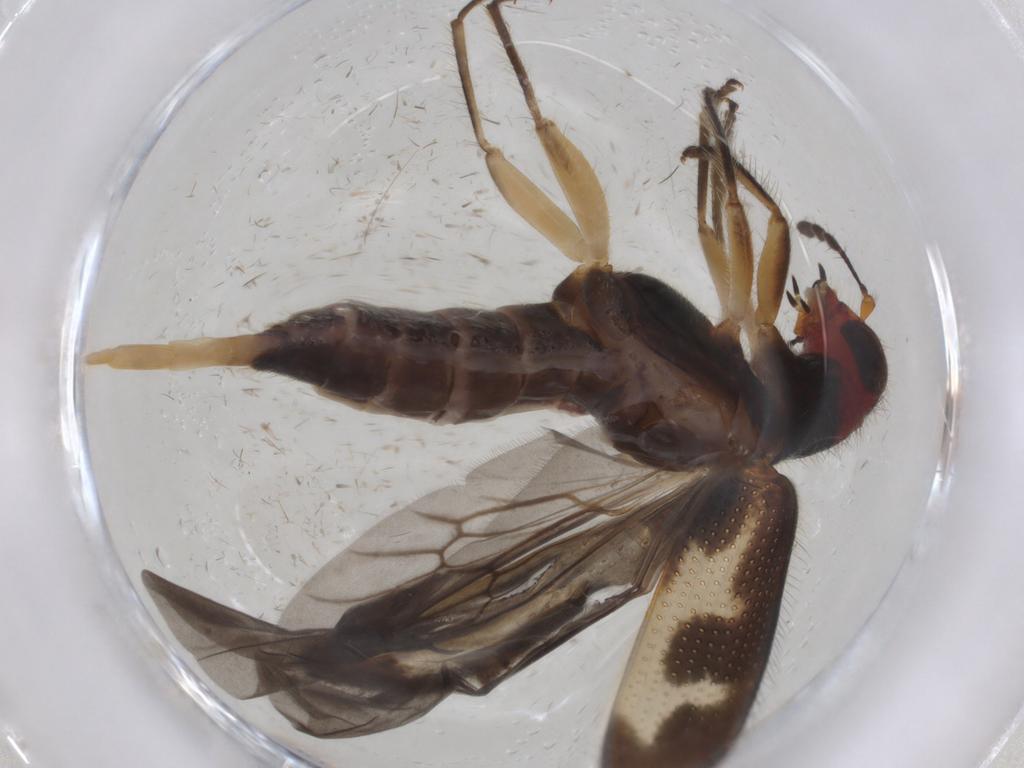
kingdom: Animalia
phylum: Arthropoda
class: Insecta
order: Coleoptera
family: Cleridae
